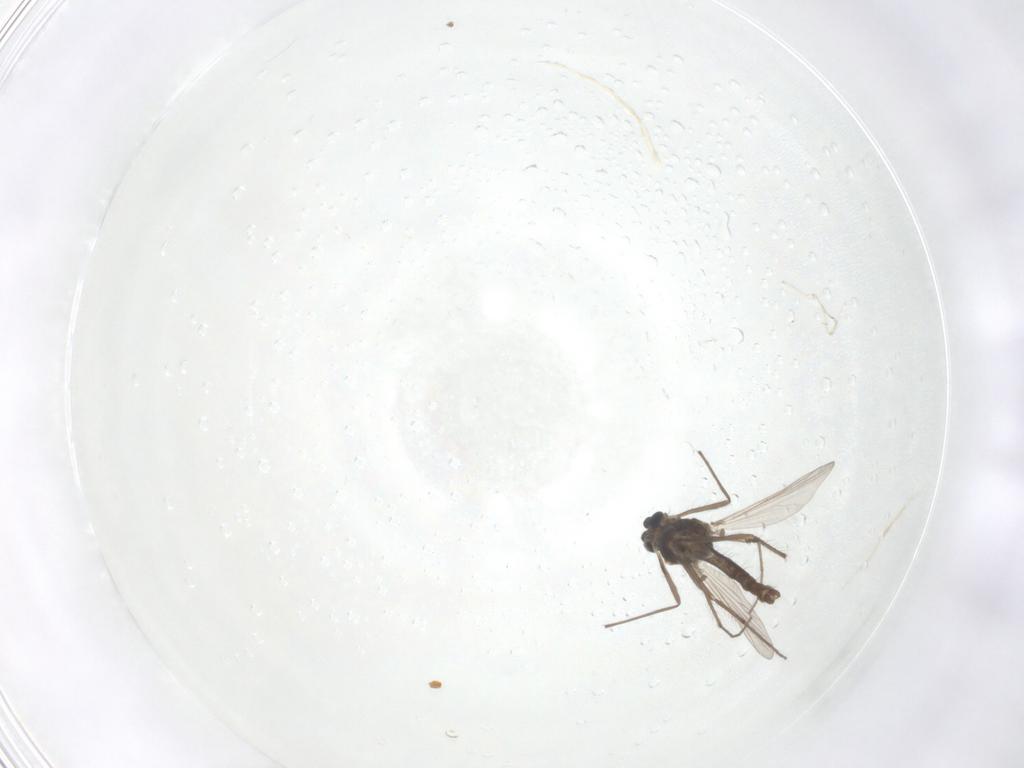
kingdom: Animalia
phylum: Arthropoda
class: Insecta
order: Diptera
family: Chironomidae
